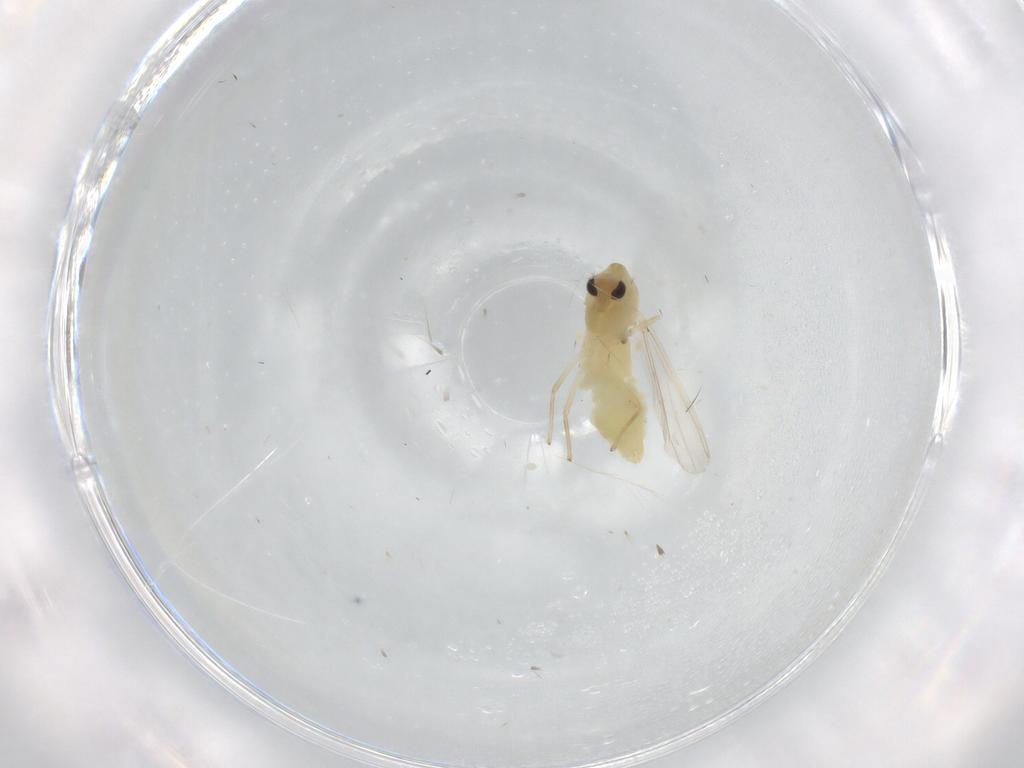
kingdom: Animalia
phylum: Arthropoda
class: Insecta
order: Diptera
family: Chironomidae
